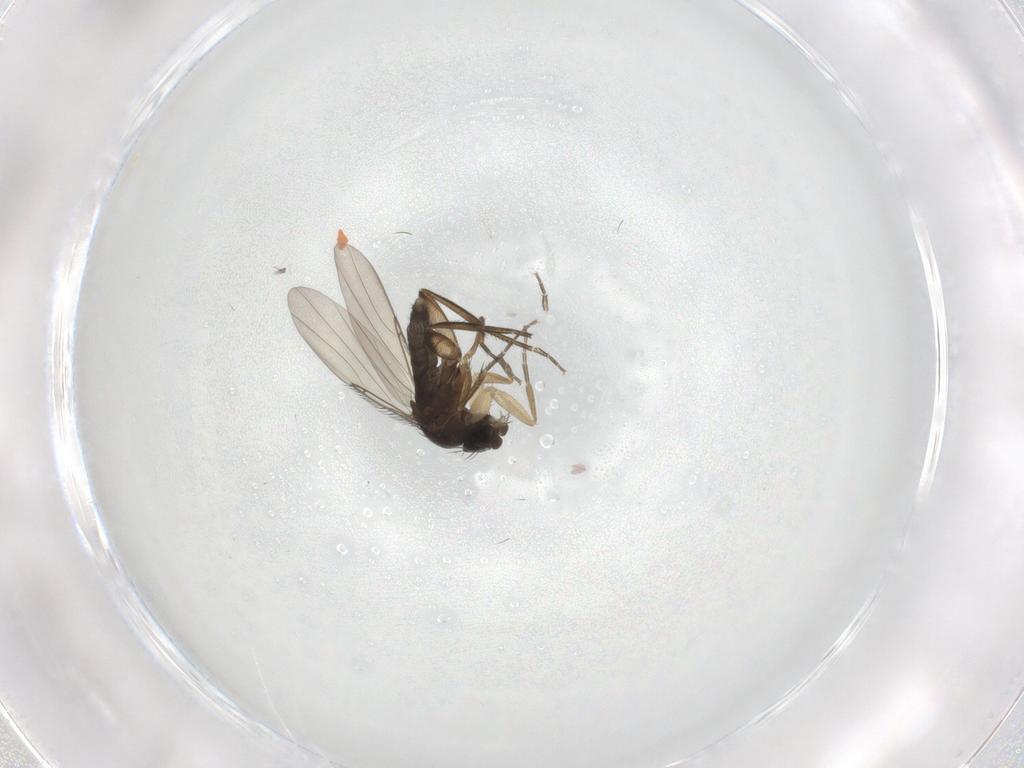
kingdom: Animalia
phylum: Arthropoda
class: Insecta
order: Diptera
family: Phoridae
